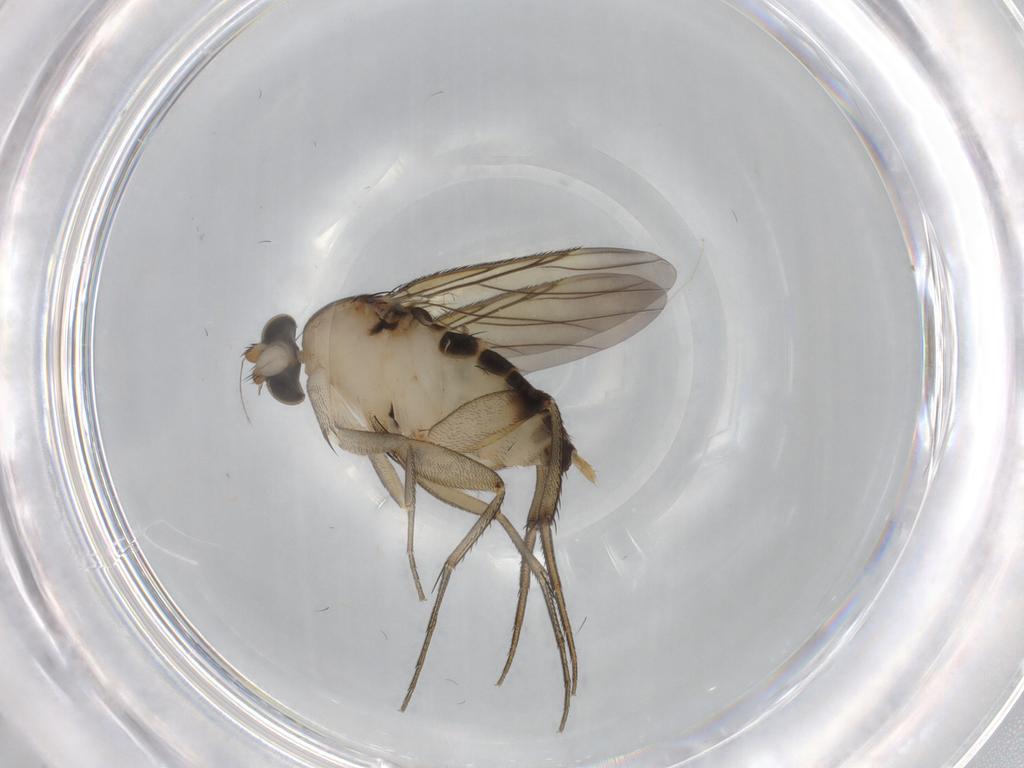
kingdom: Animalia
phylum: Arthropoda
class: Insecta
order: Diptera
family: Phoridae
